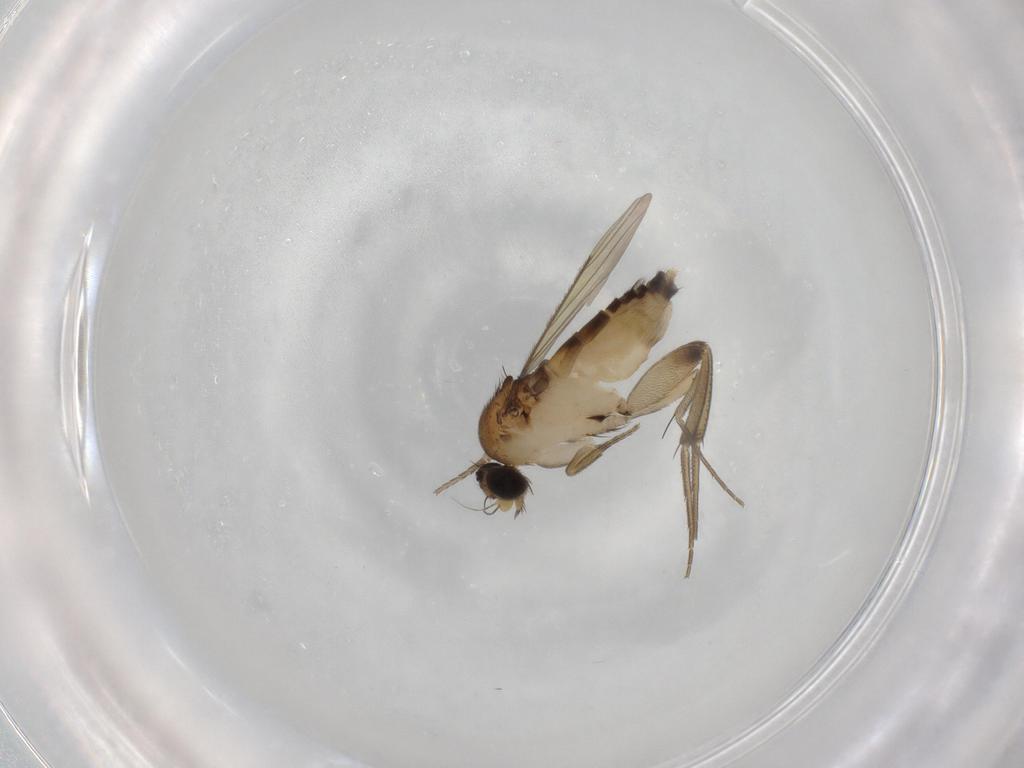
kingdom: Animalia
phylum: Arthropoda
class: Insecta
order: Diptera
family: Phoridae
